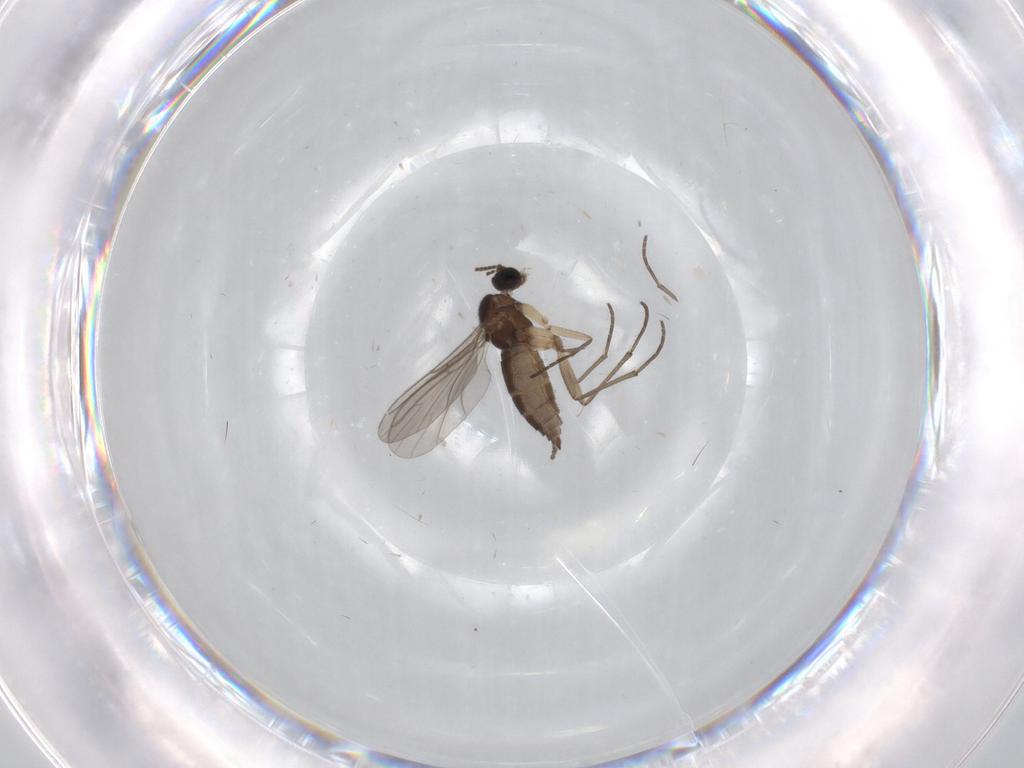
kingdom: Animalia
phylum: Arthropoda
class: Insecta
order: Diptera
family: Sciaridae
